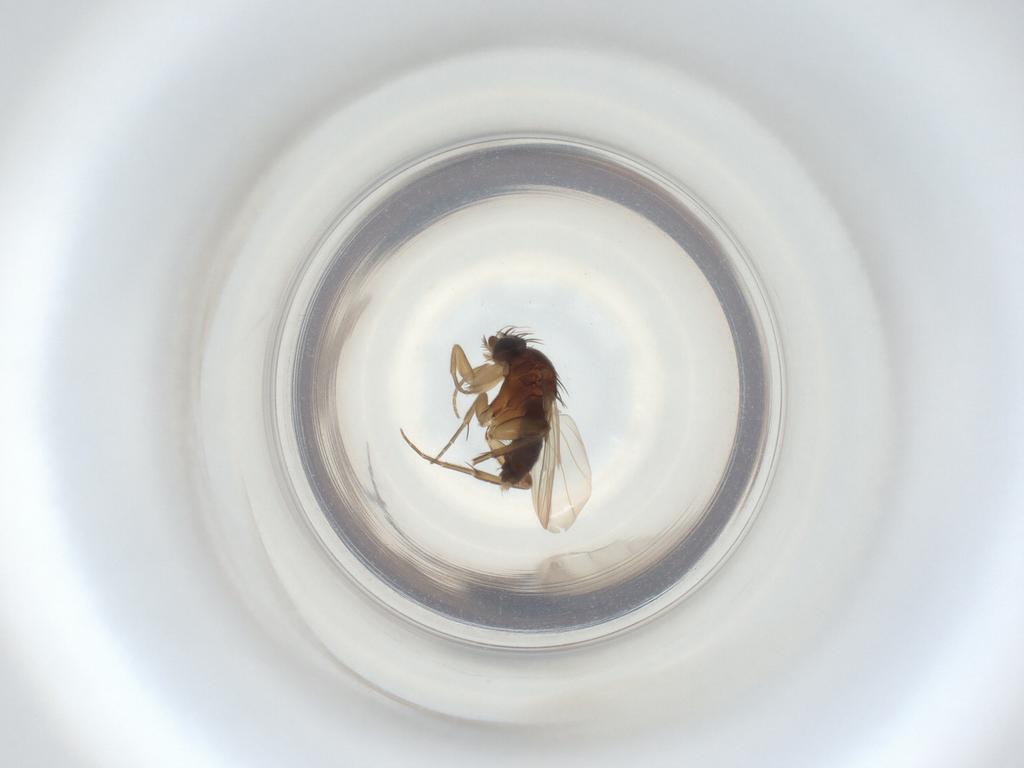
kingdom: Animalia
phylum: Arthropoda
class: Insecta
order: Diptera
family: Phoridae
